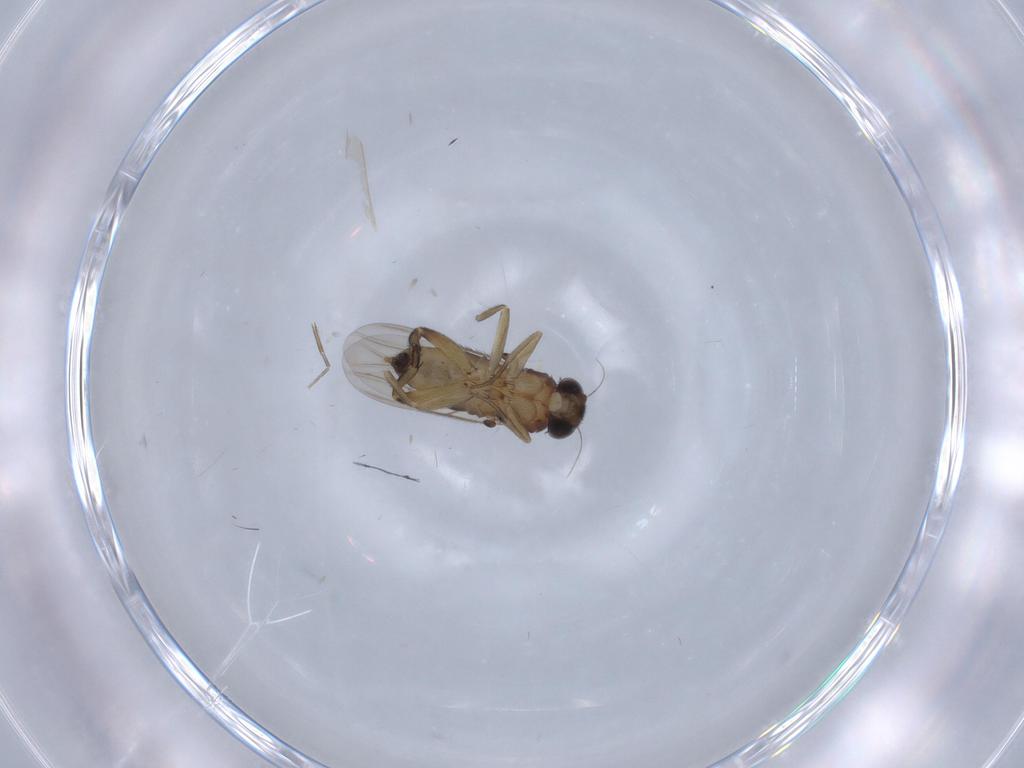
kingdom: Animalia
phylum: Arthropoda
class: Insecta
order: Diptera
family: Phoridae
